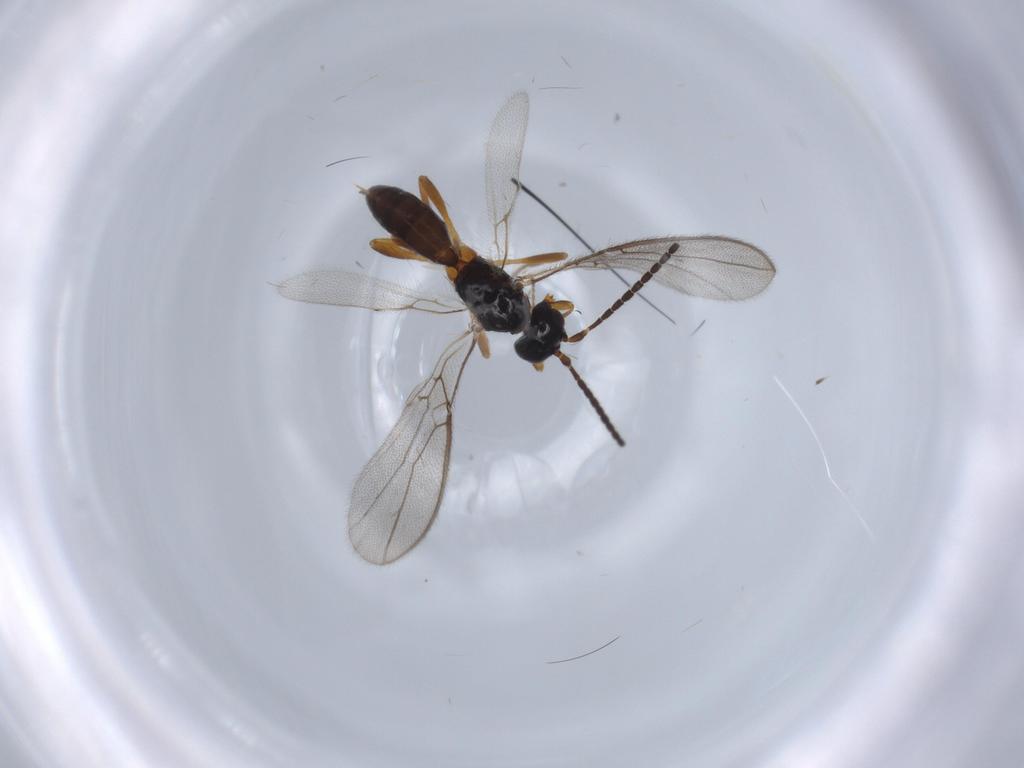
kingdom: Animalia
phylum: Arthropoda
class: Insecta
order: Hymenoptera
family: Braconidae
